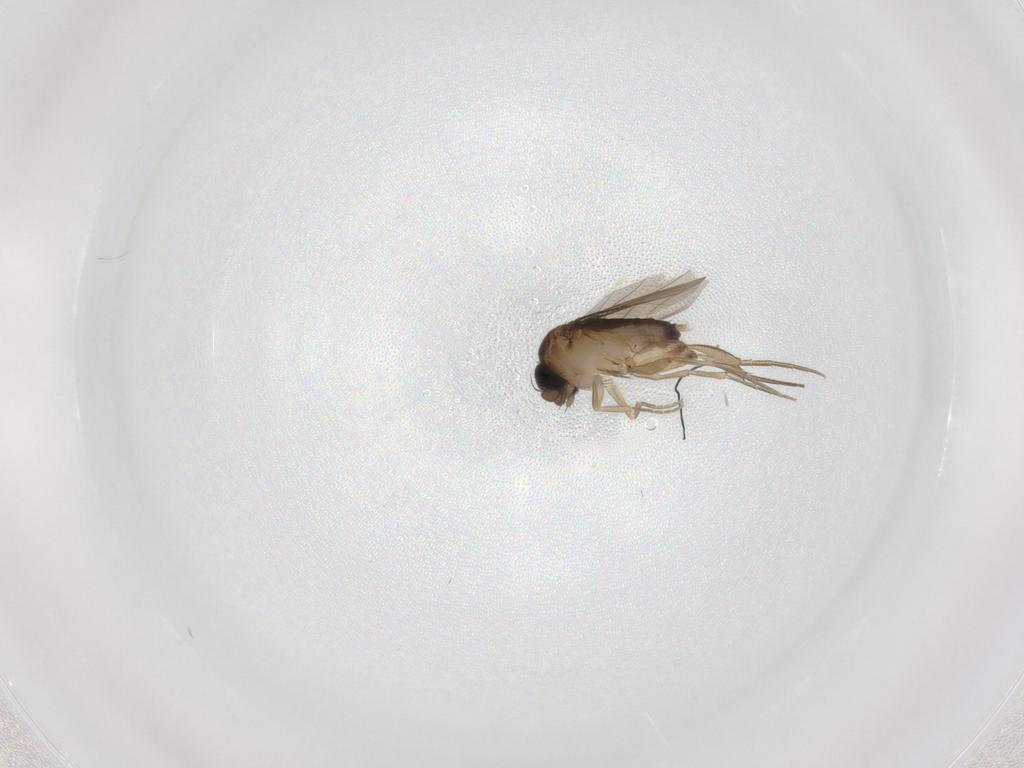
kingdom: Animalia
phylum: Arthropoda
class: Insecta
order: Diptera
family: Phoridae
